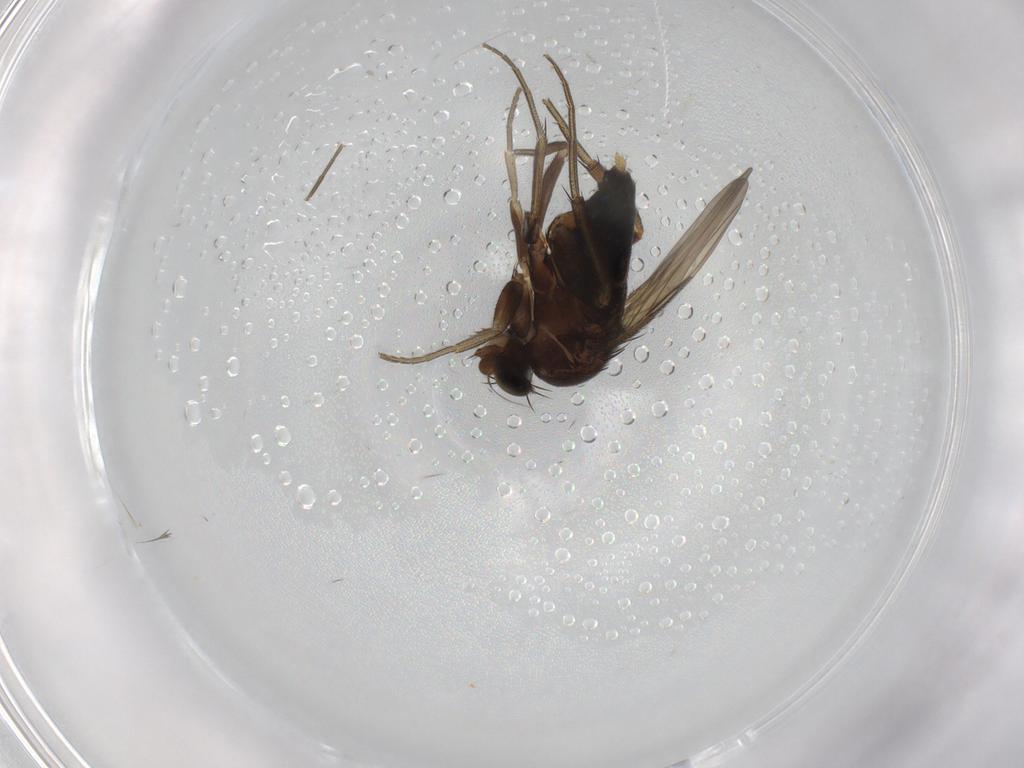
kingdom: Animalia
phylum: Arthropoda
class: Insecta
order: Diptera
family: Phoridae
